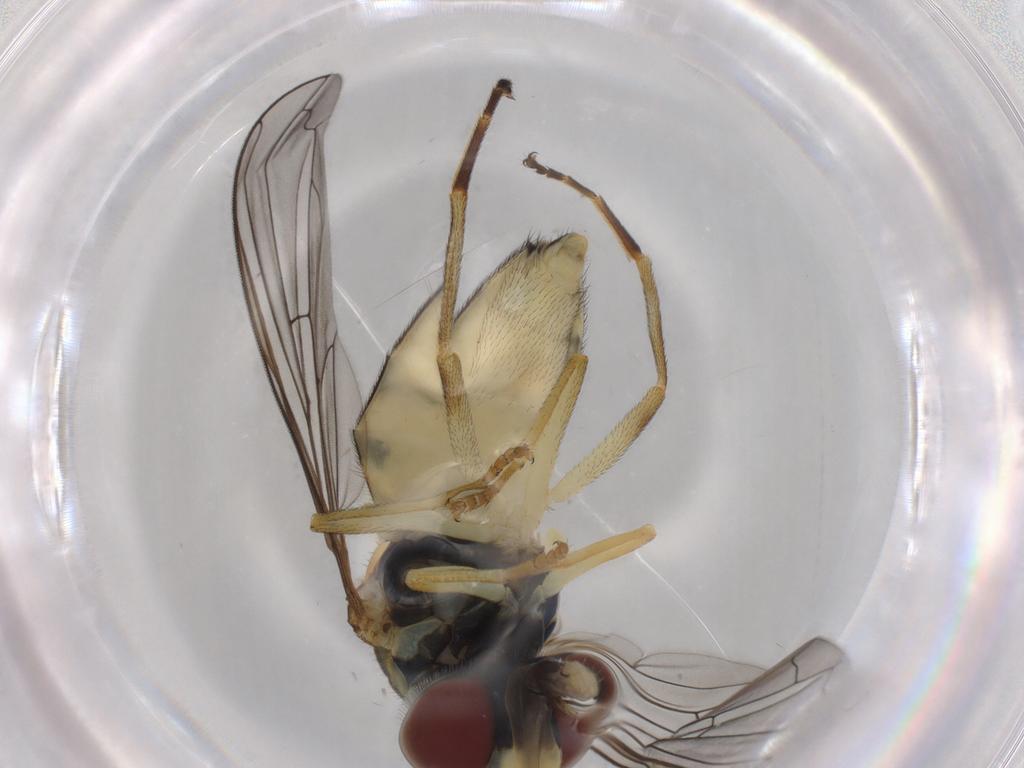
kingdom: Animalia
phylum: Arthropoda
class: Insecta
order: Diptera
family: Syrphidae
